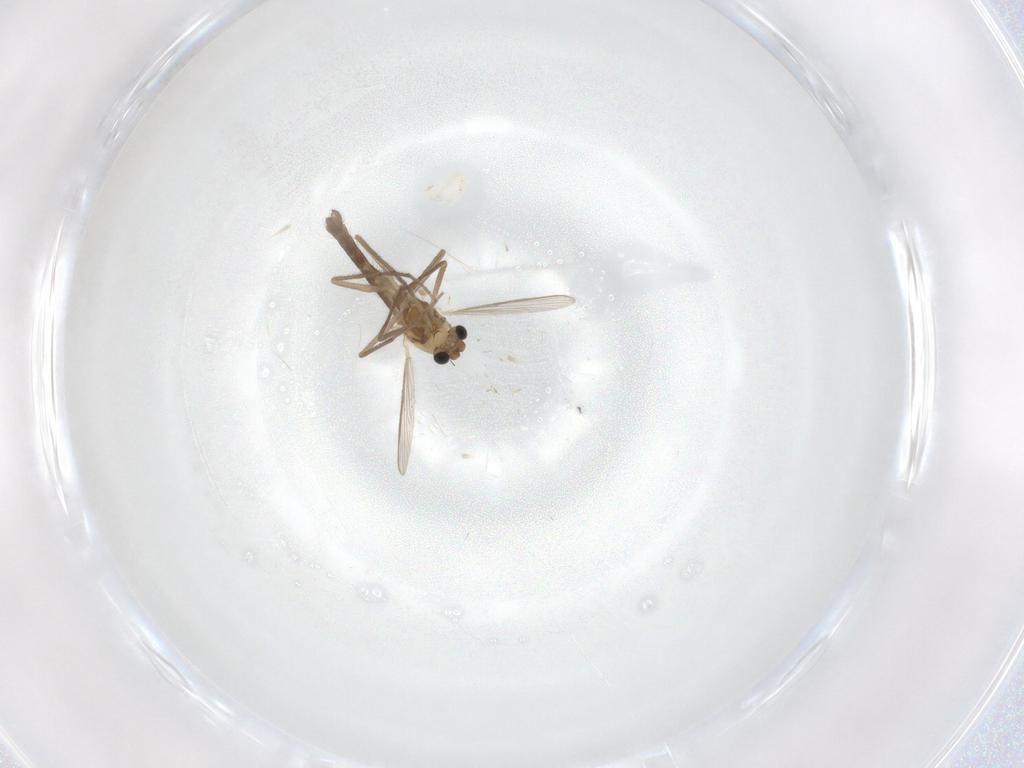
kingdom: Animalia
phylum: Arthropoda
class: Insecta
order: Diptera
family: Chironomidae
